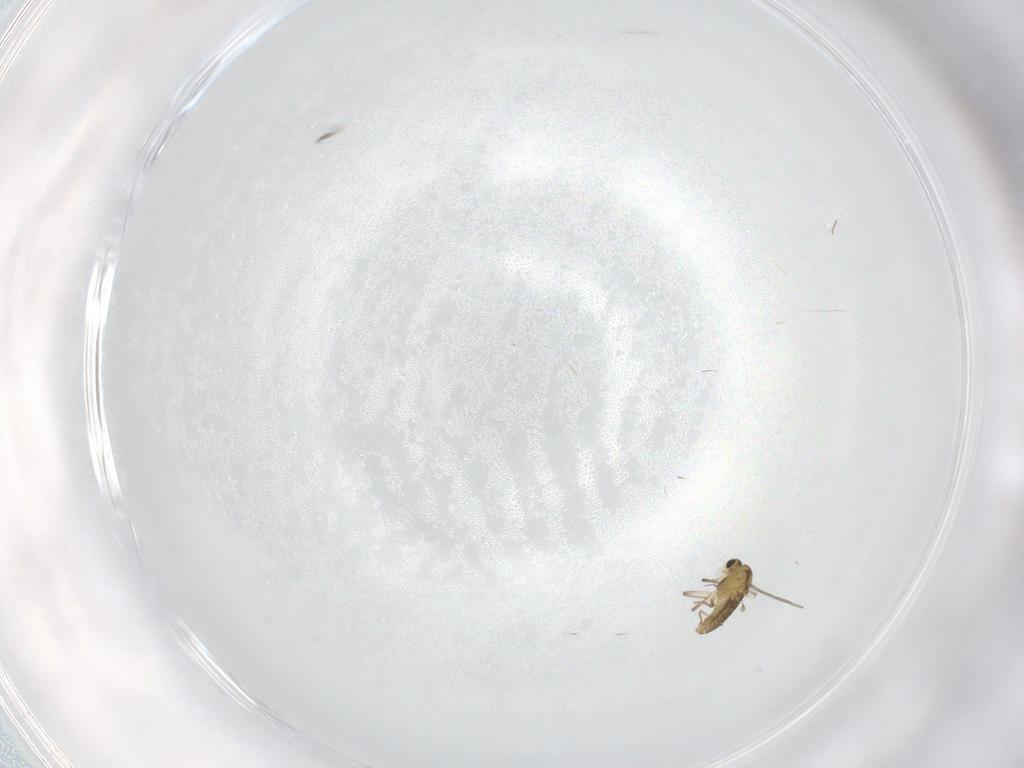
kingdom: Animalia
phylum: Arthropoda
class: Insecta
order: Diptera
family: Chironomidae
